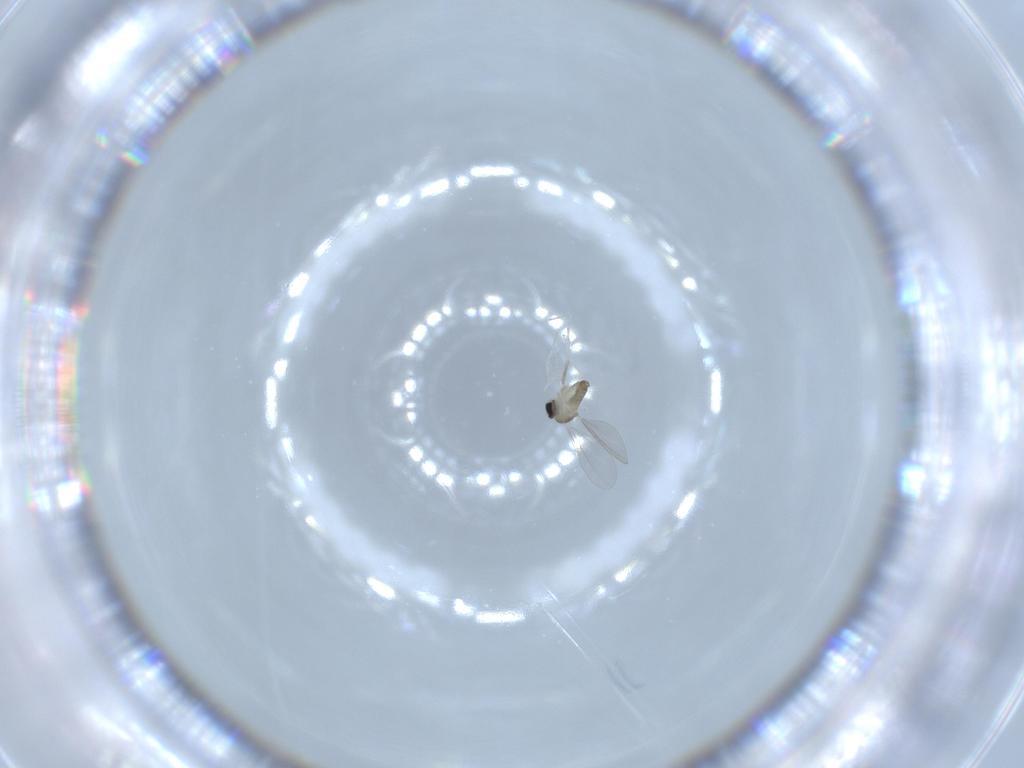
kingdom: Animalia
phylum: Arthropoda
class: Insecta
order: Diptera
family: Cecidomyiidae
